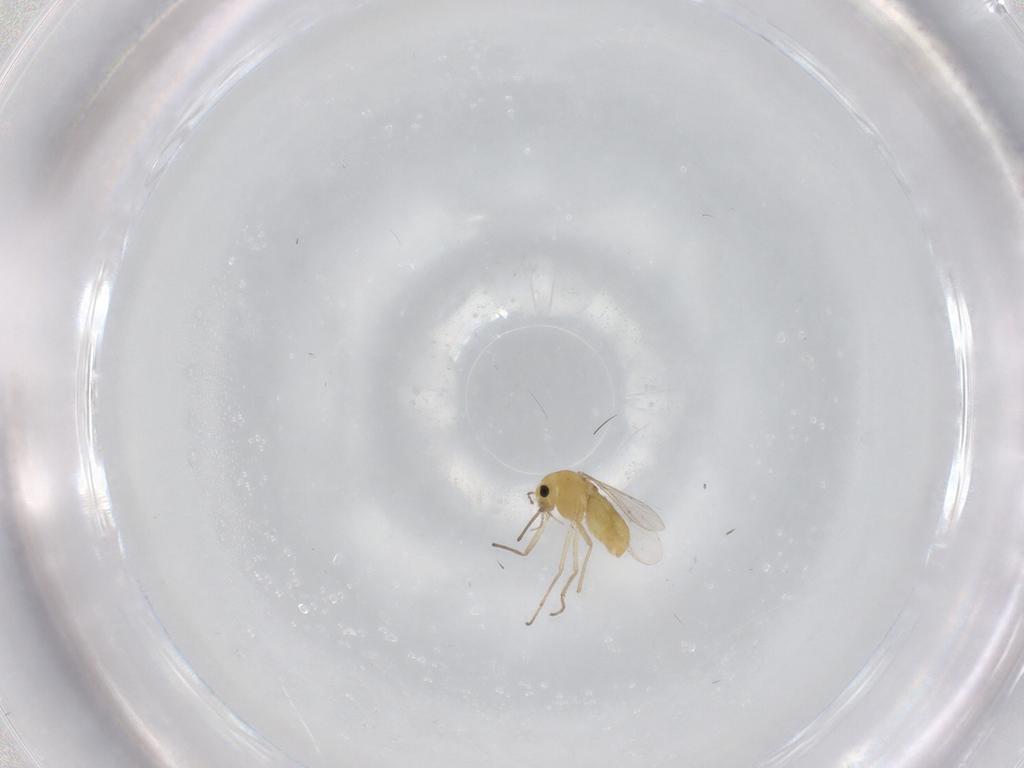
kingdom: Animalia
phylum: Arthropoda
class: Insecta
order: Diptera
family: Chironomidae
